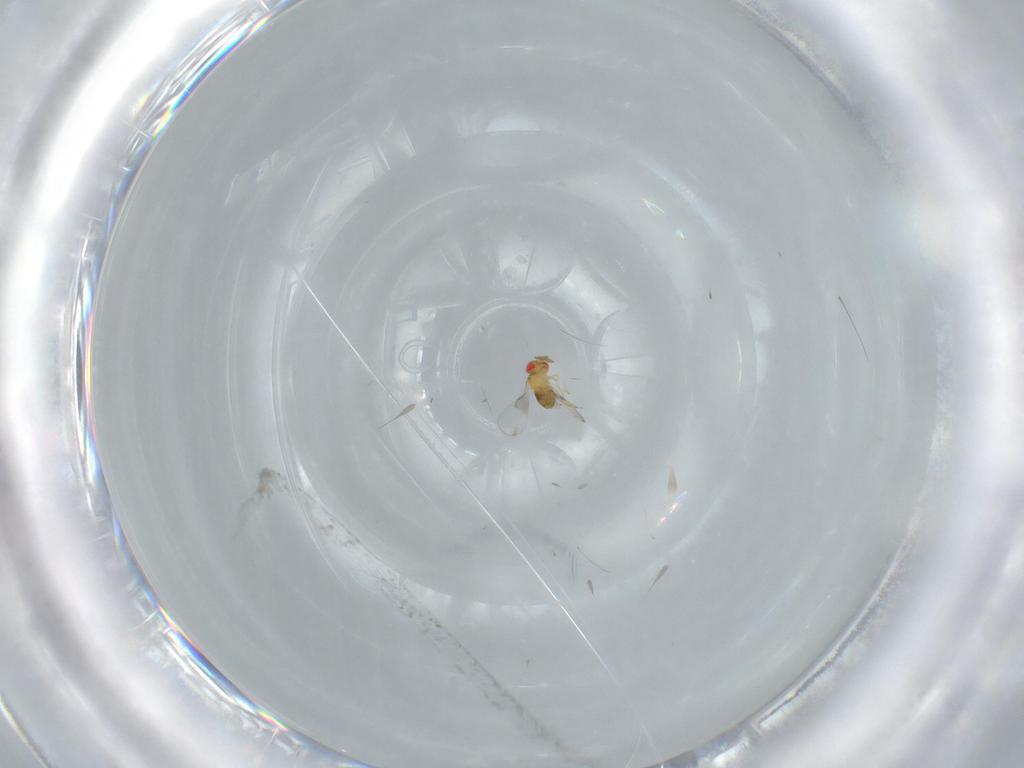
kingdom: Animalia
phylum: Arthropoda
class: Insecta
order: Hymenoptera
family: Trichogrammatidae
